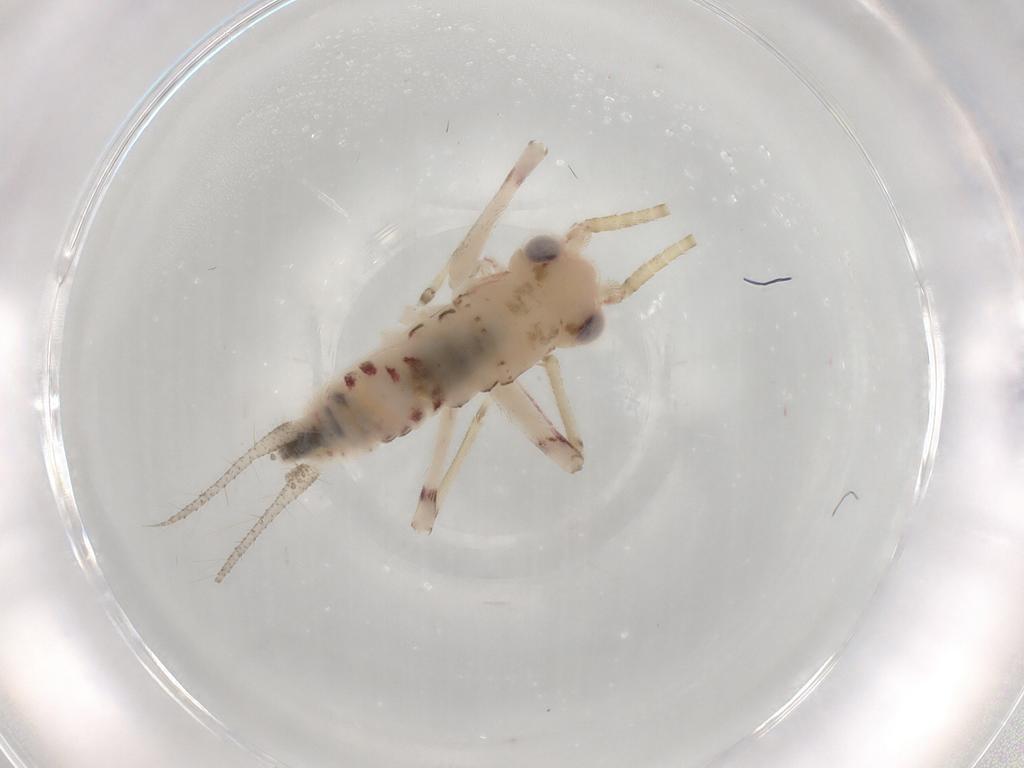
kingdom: Animalia
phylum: Arthropoda
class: Insecta
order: Orthoptera
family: Trigonidiidae
